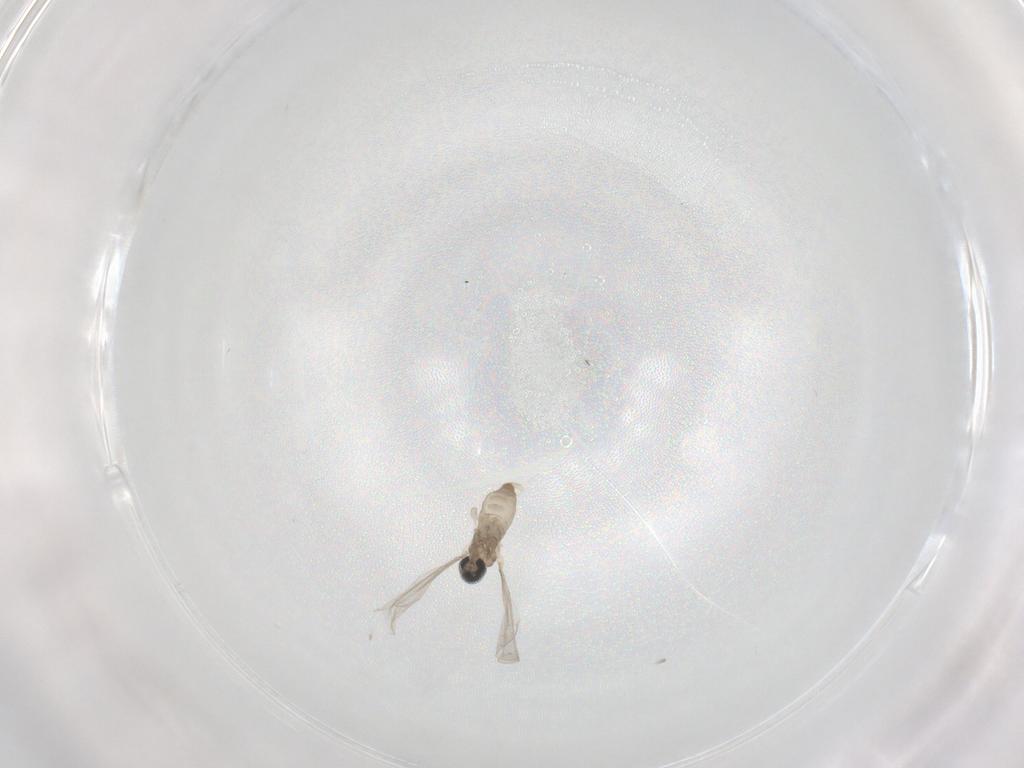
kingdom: Animalia
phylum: Arthropoda
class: Insecta
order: Diptera
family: Cecidomyiidae
